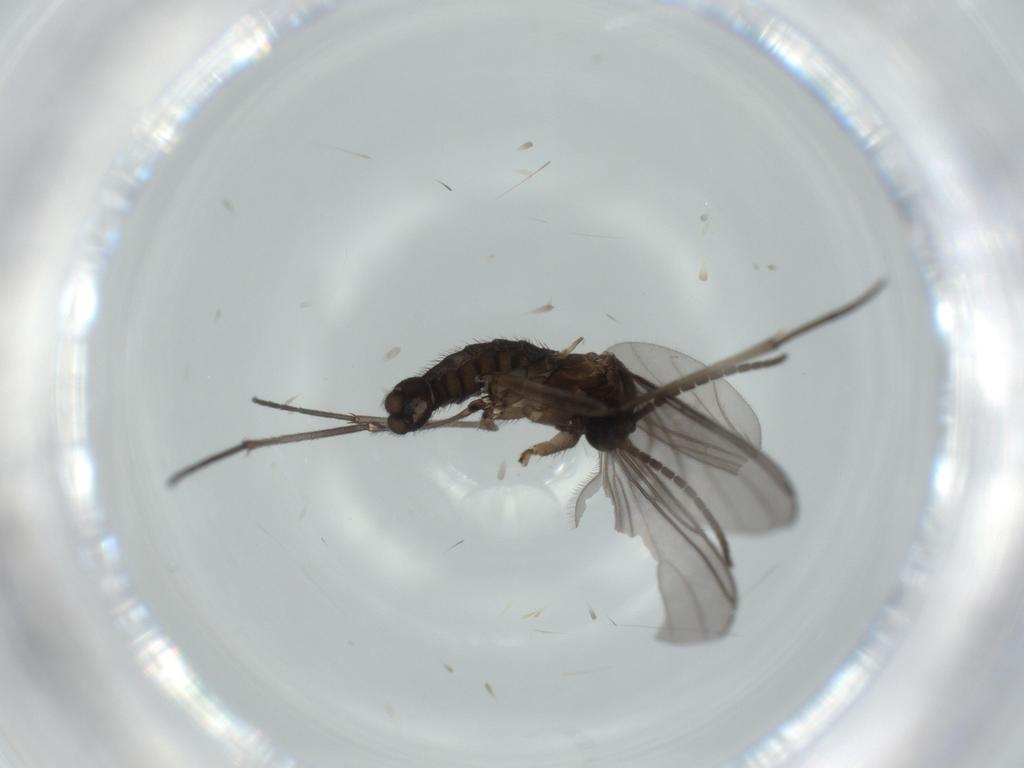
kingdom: Animalia
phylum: Arthropoda
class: Insecta
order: Diptera
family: Sciaridae
